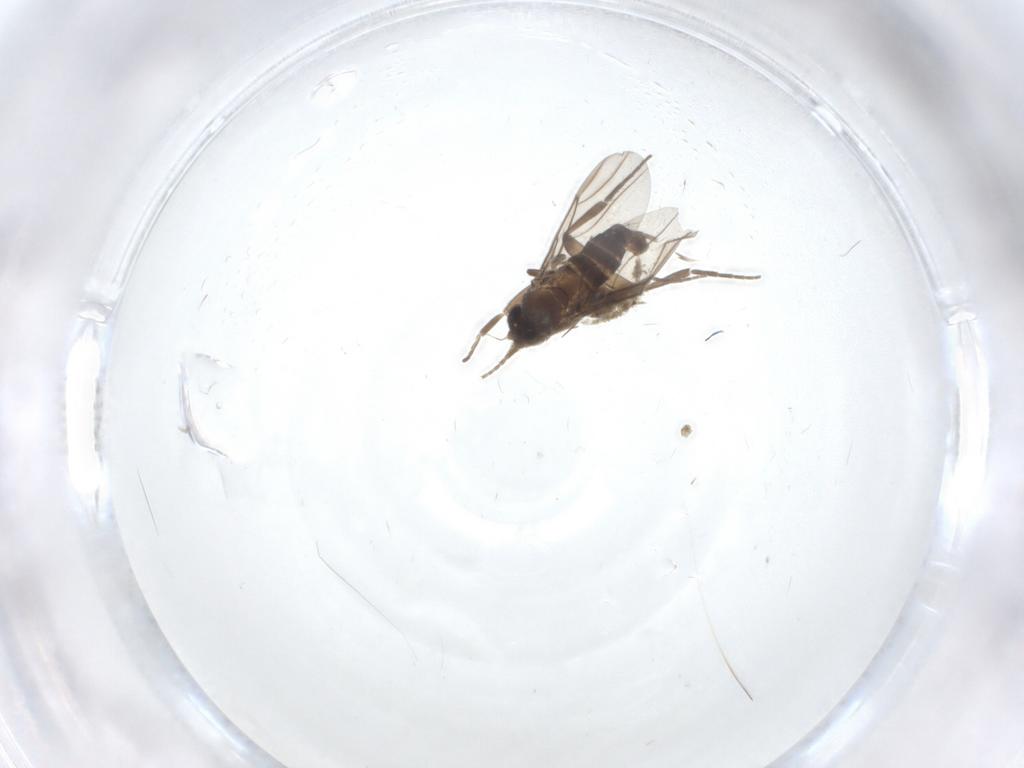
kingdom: Animalia
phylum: Arthropoda
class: Insecta
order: Diptera
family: Phoridae
